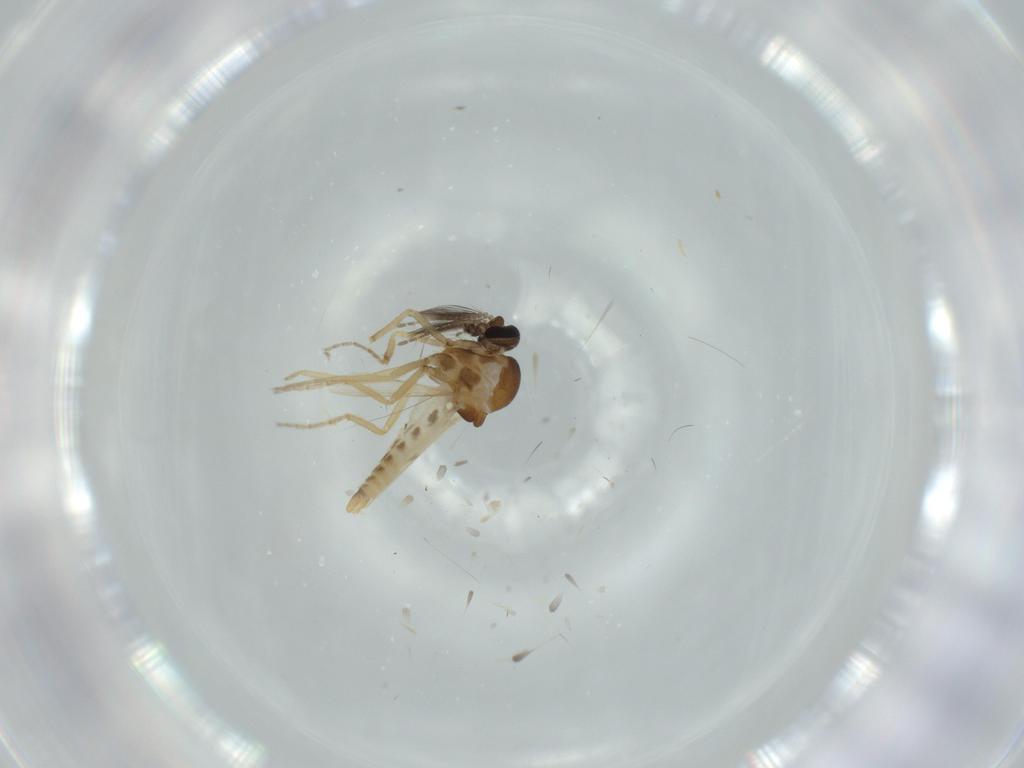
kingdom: Animalia
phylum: Arthropoda
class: Insecta
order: Diptera
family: Ceratopogonidae
